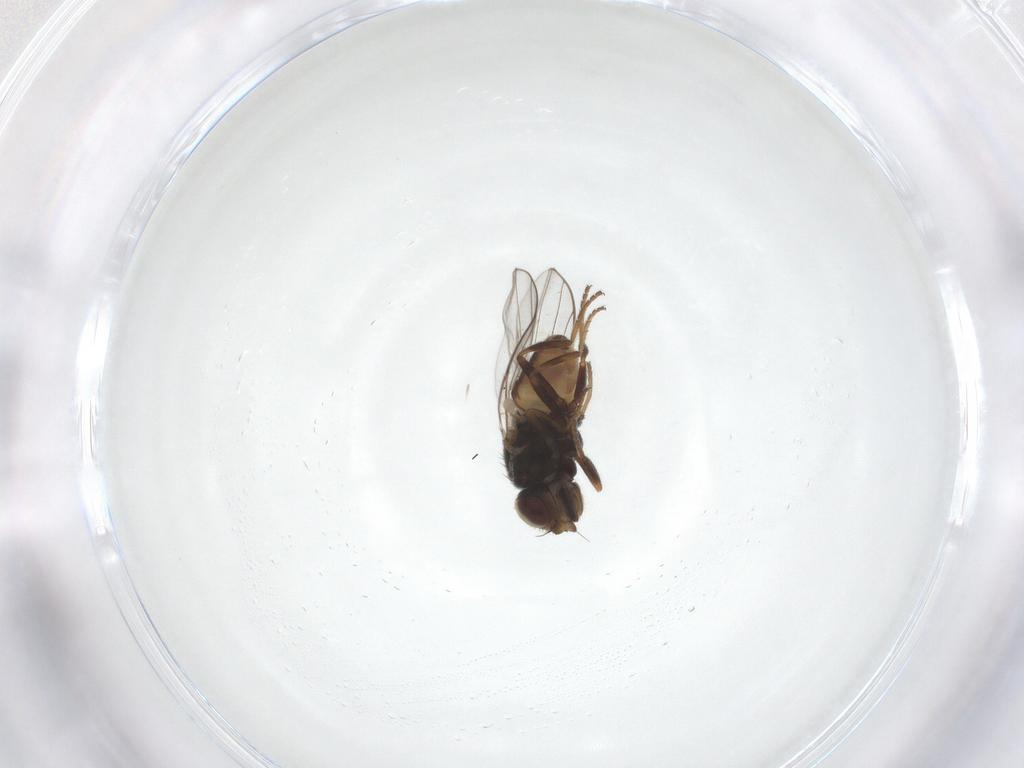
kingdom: Animalia
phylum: Arthropoda
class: Insecta
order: Diptera
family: Chloropidae
